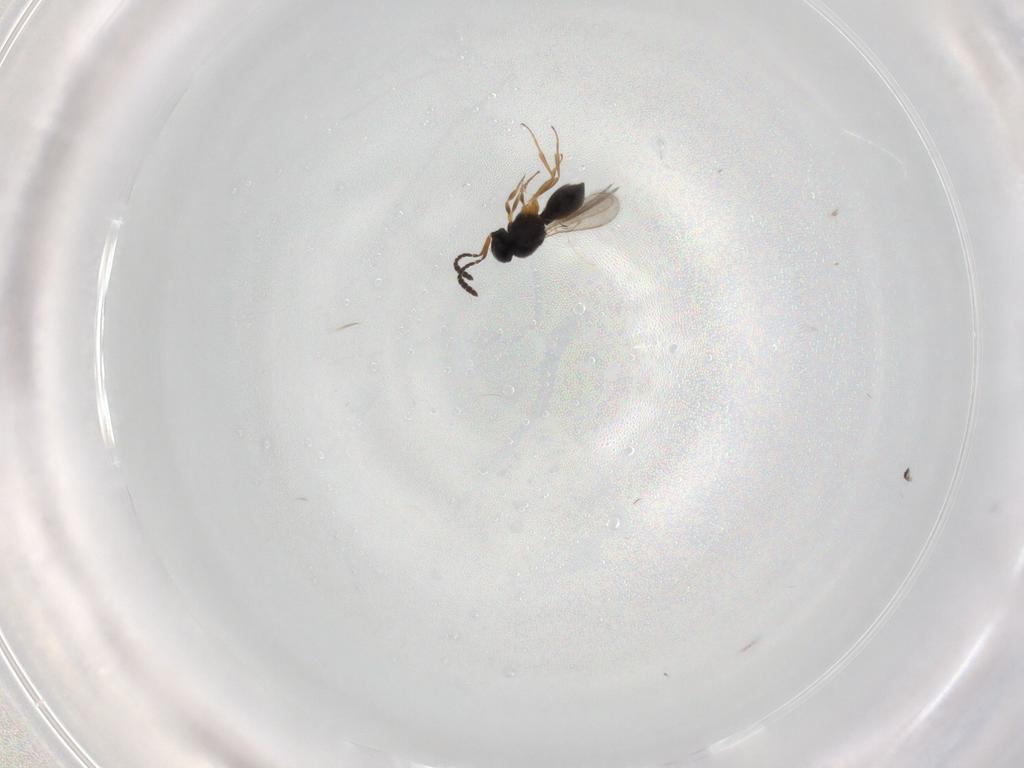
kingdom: Animalia
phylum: Arthropoda
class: Insecta
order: Hymenoptera
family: Scelionidae
